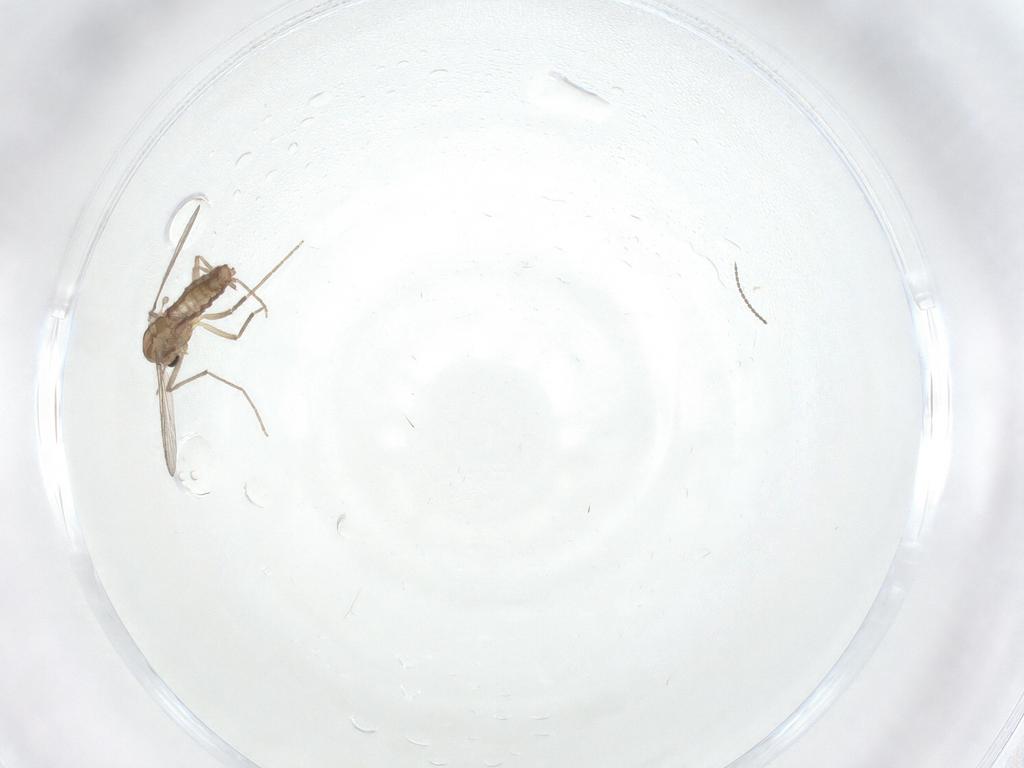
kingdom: Animalia
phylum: Arthropoda
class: Insecta
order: Diptera
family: Chironomidae
